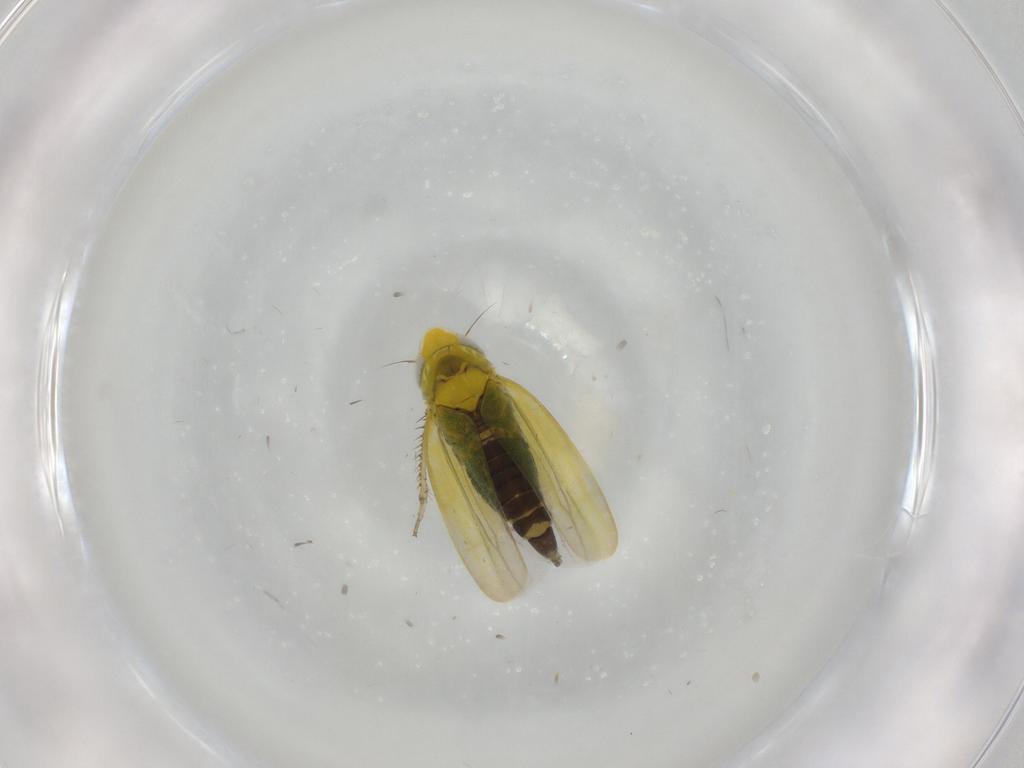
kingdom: Animalia
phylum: Arthropoda
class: Insecta
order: Hemiptera
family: Cicadellidae
